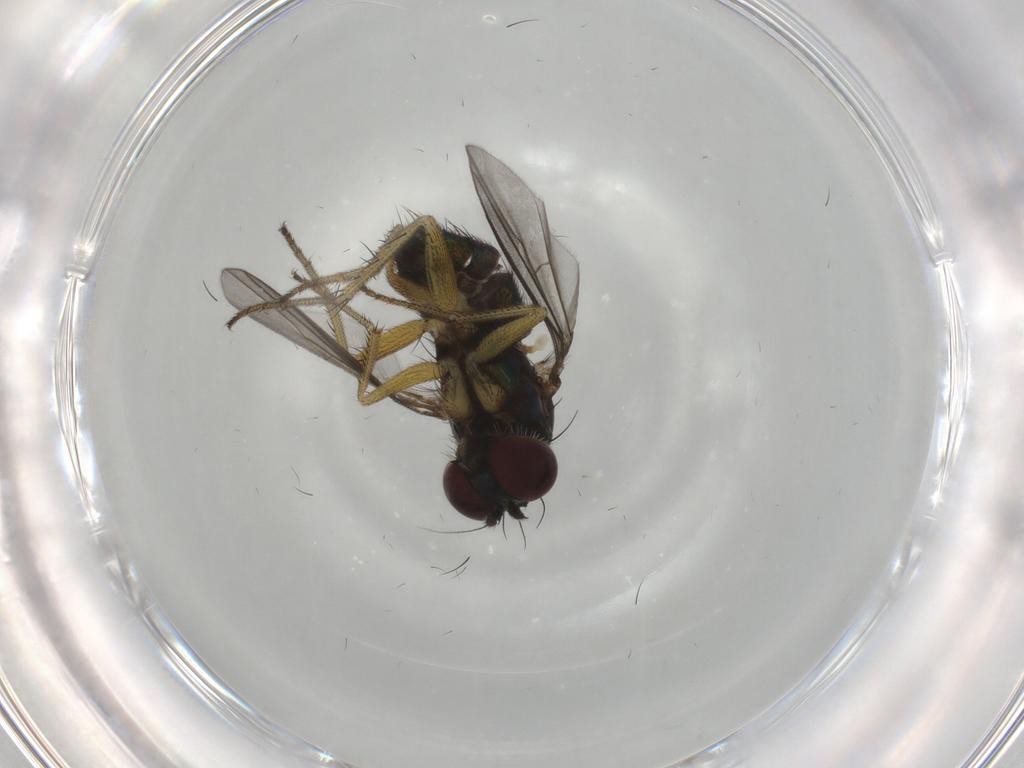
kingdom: Animalia
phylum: Arthropoda
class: Insecta
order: Diptera
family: Dolichopodidae
